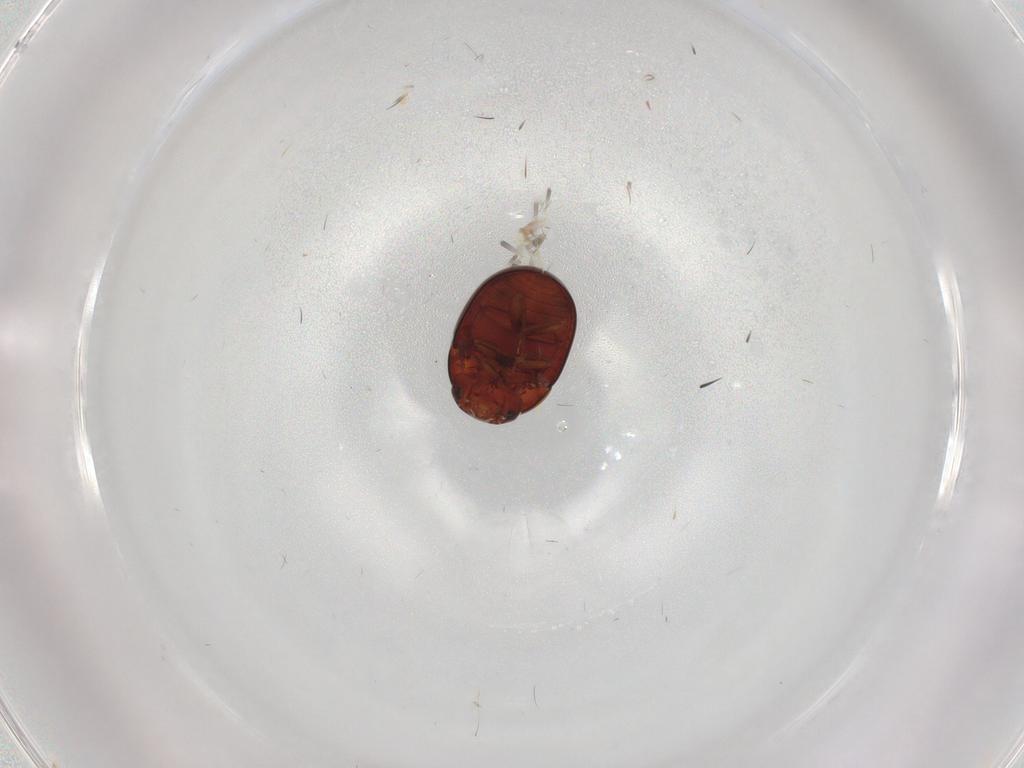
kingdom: Animalia
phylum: Arthropoda
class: Insecta
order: Coleoptera
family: Leiodidae
